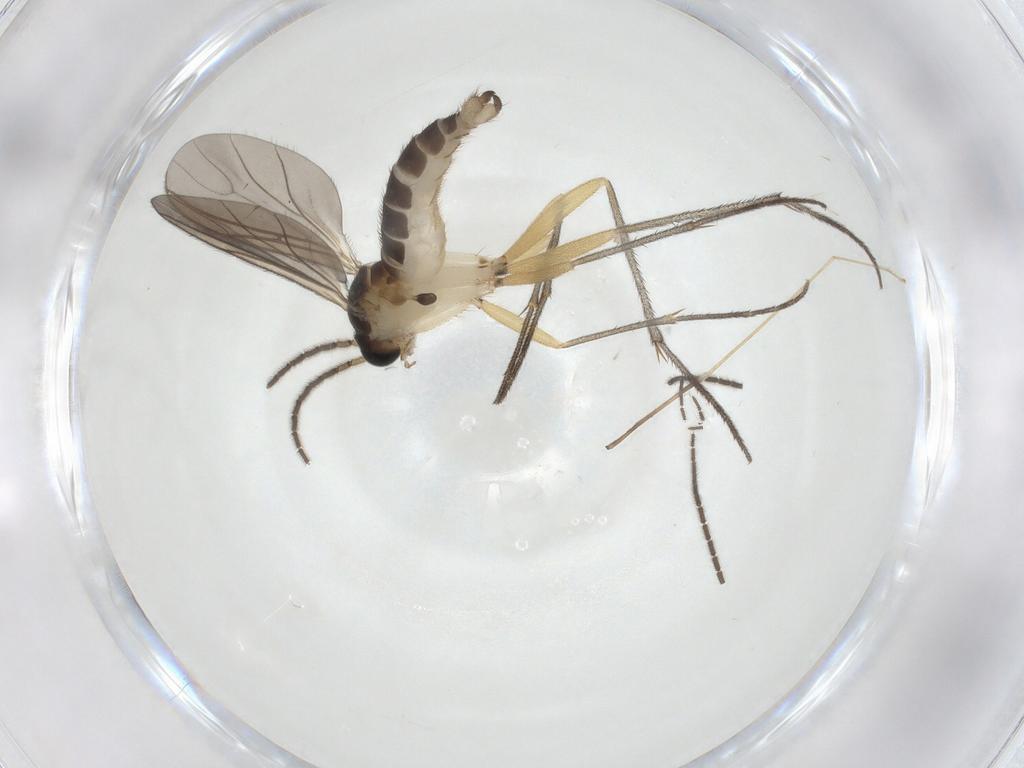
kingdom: Animalia
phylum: Arthropoda
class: Insecta
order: Diptera
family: Sciaridae
